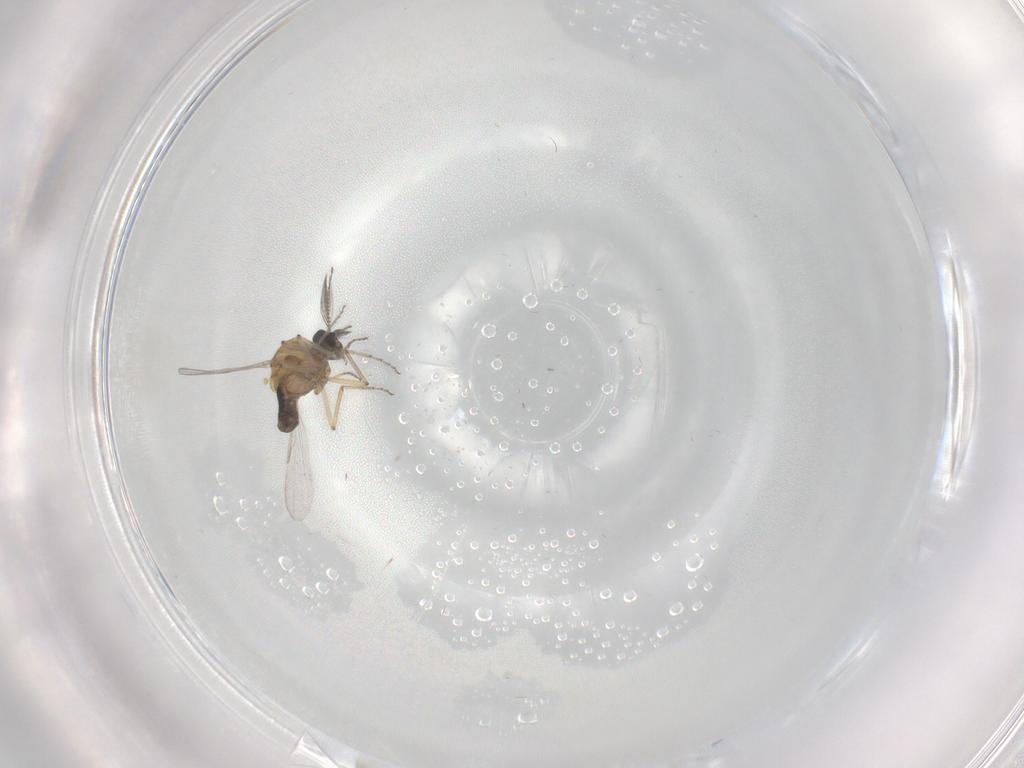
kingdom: Animalia
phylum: Arthropoda
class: Insecta
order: Diptera
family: Ceratopogonidae
